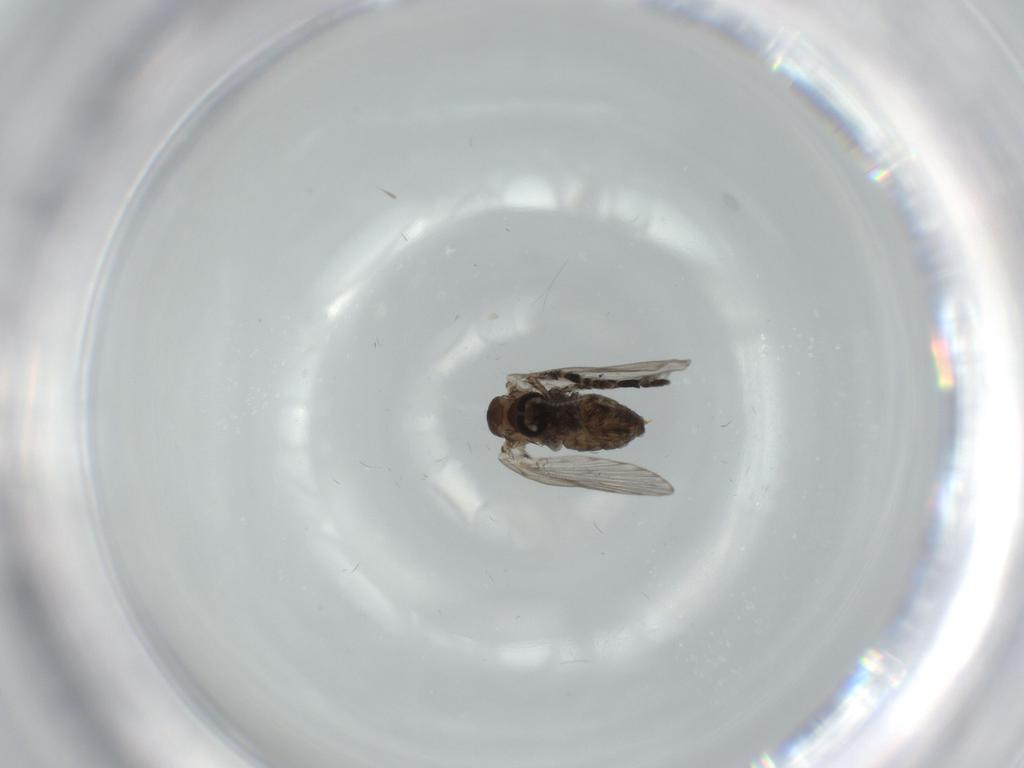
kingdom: Animalia
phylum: Arthropoda
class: Insecta
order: Diptera
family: Psychodidae
